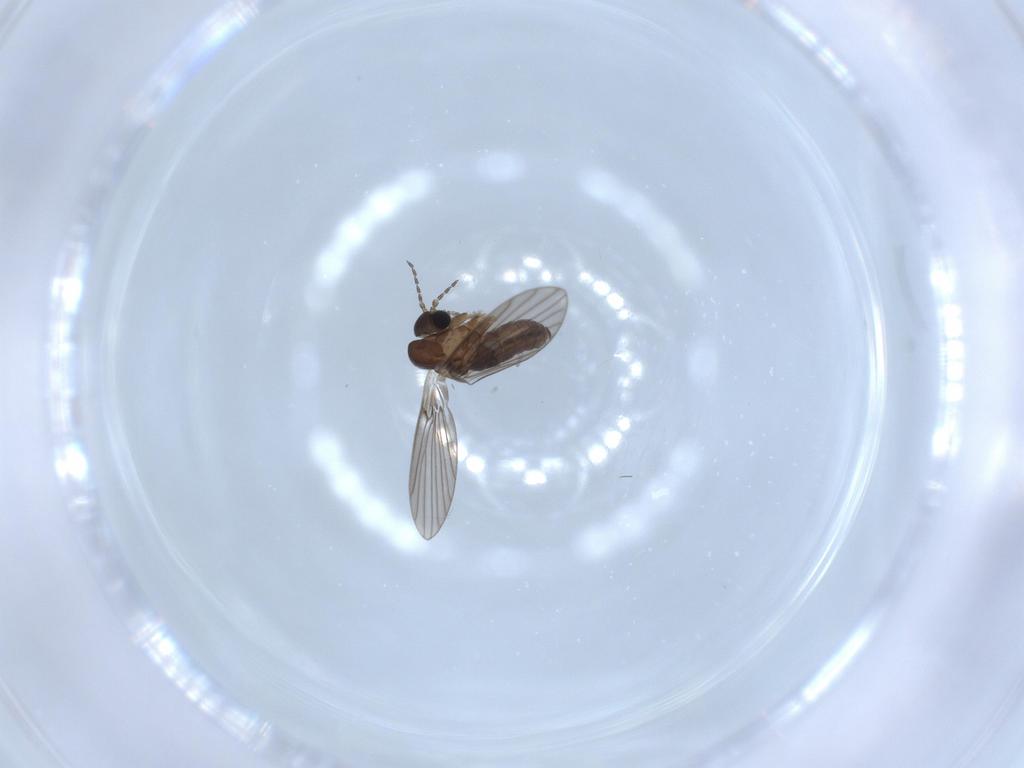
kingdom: Animalia
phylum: Arthropoda
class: Insecta
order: Diptera
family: Psychodidae
